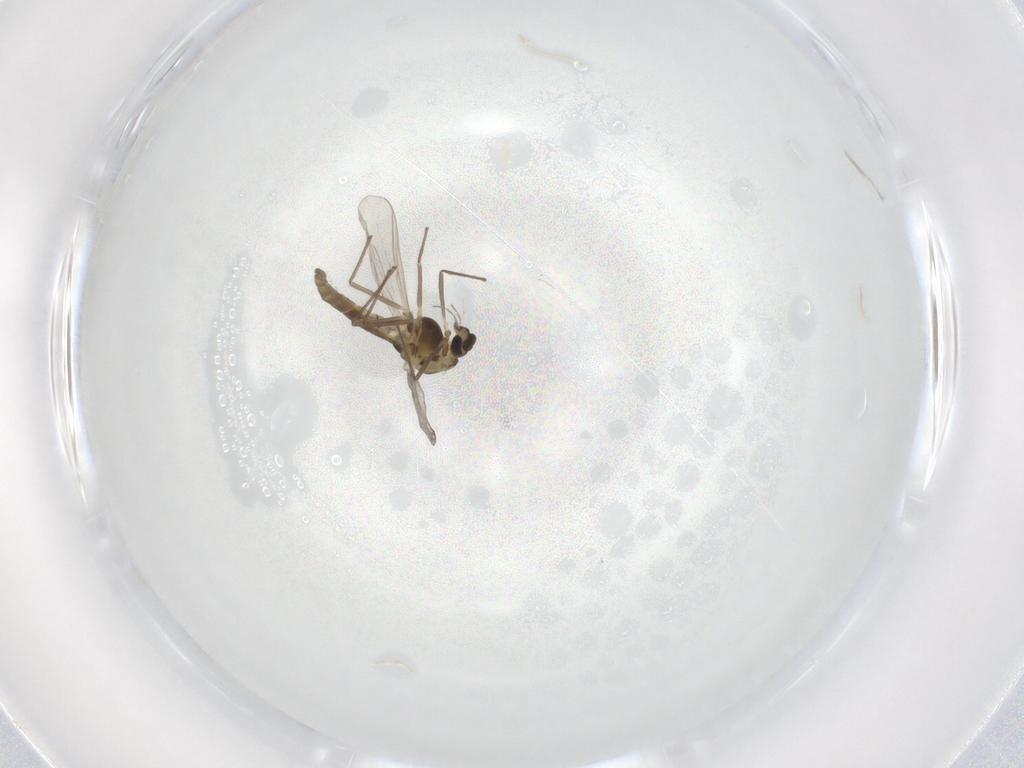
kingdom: Animalia
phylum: Arthropoda
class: Insecta
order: Diptera
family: Chironomidae
